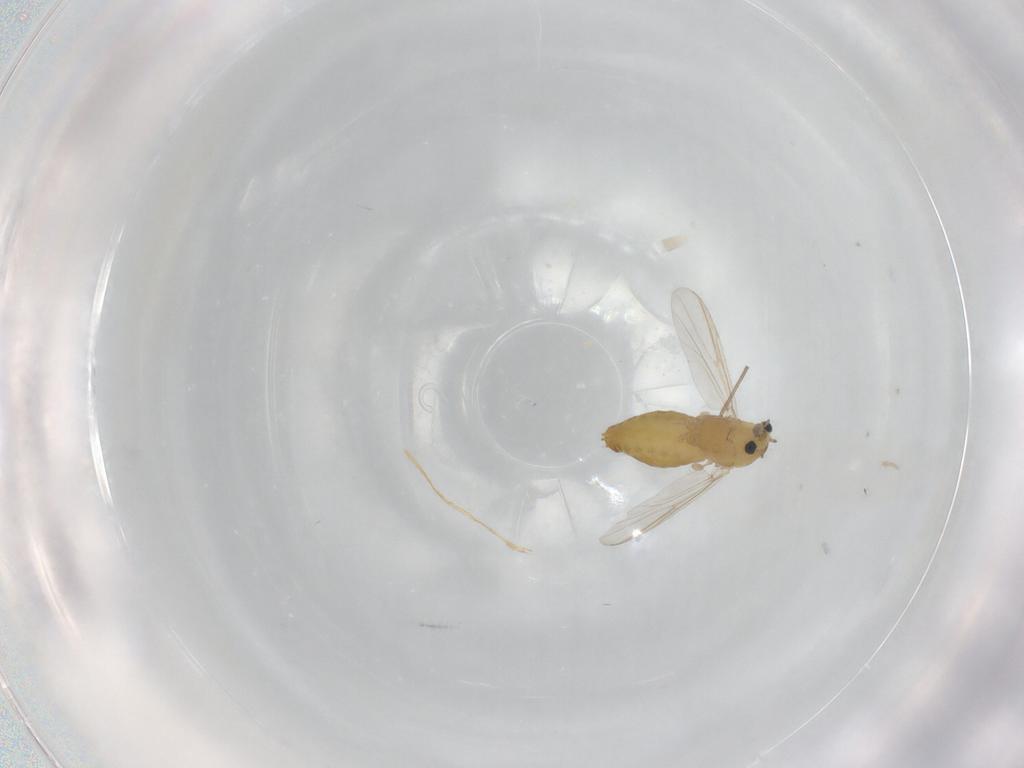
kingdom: Animalia
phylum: Arthropoda
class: Insecta
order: Diptera
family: Chironomidae
